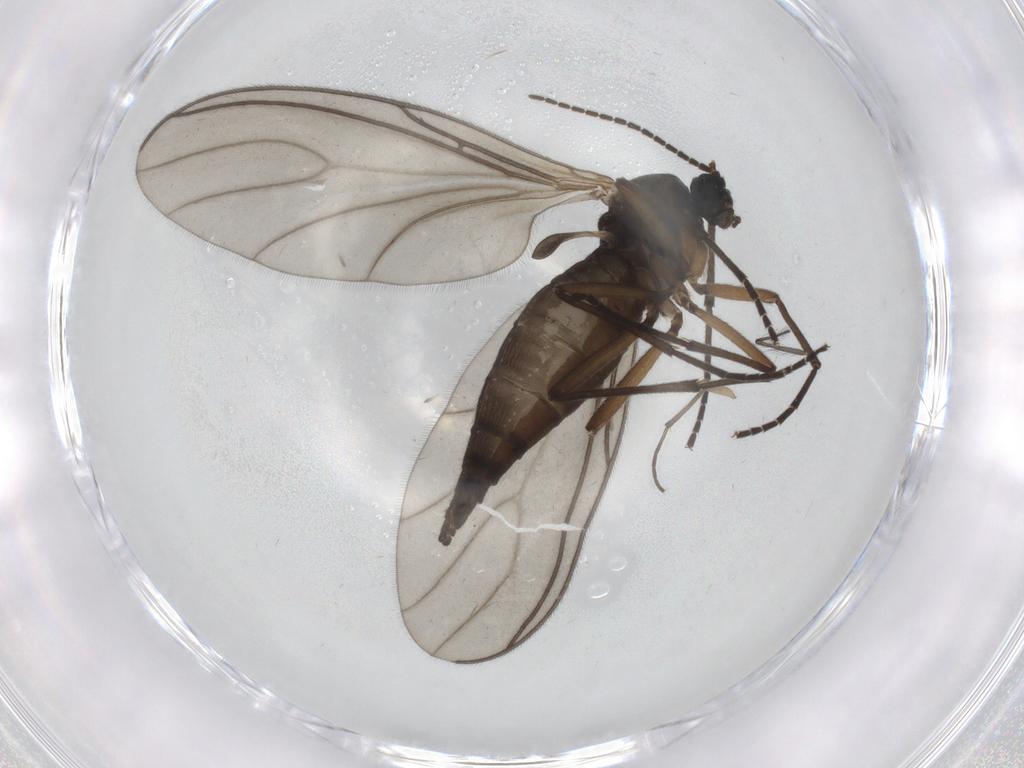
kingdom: Animalia
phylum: Arthropoda
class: Insecta
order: Diptera
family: Sciaridae
